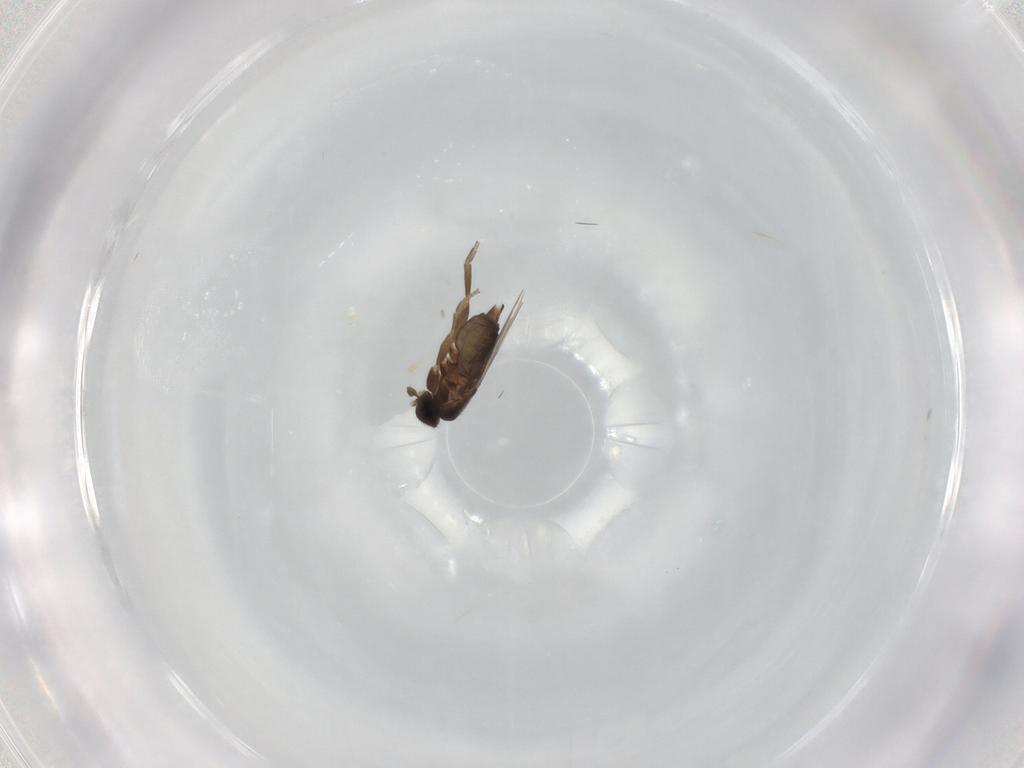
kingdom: Animalia
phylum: Arthropoda
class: Insecta
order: Diptera
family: Phoridae
